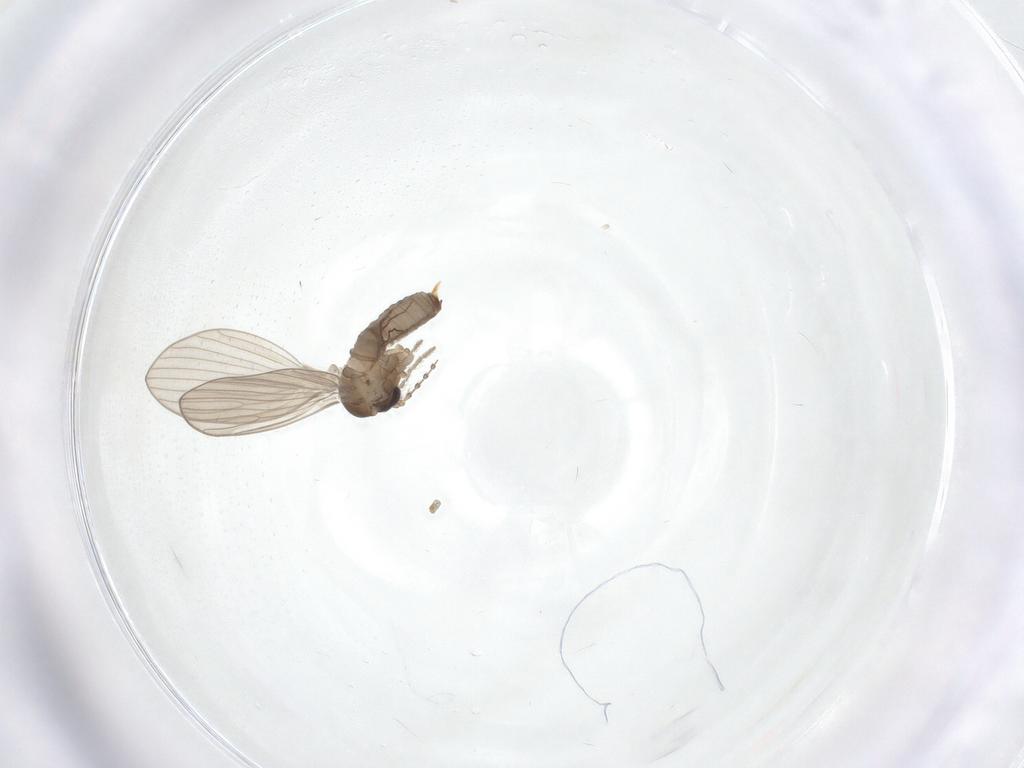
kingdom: Animalia
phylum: Arthropoda
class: Insecta
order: Diptera
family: Psychodidae
